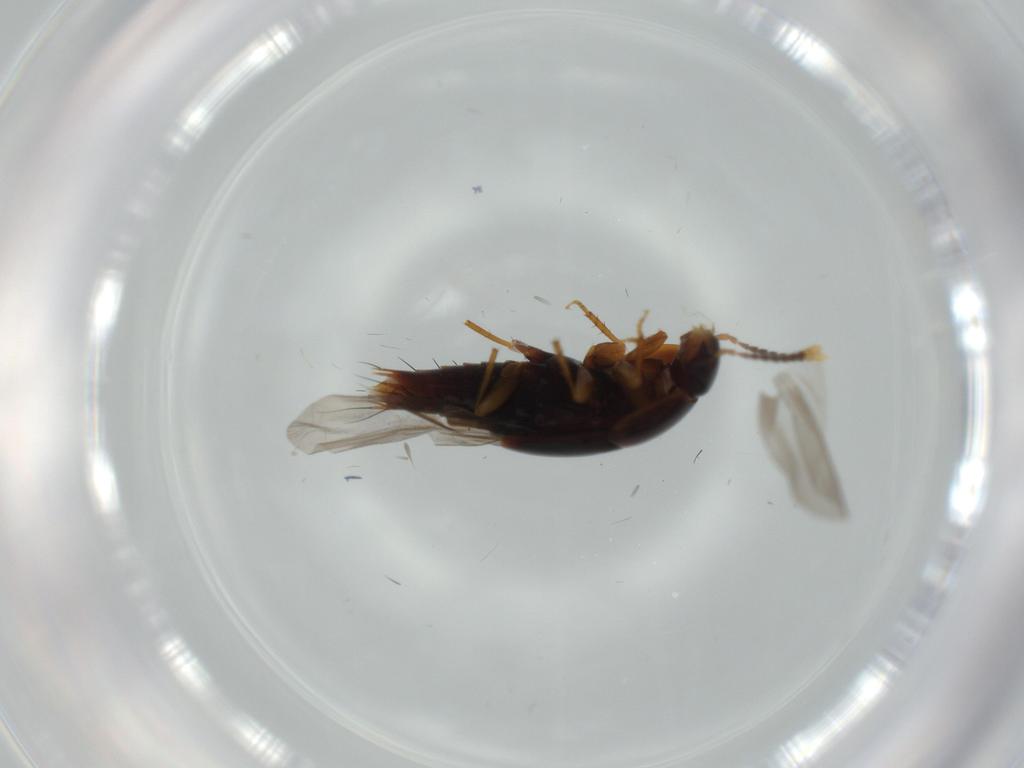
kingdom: Animalia
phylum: Arthropoda
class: Insecta
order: Coleoptera
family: Staphylinidae
